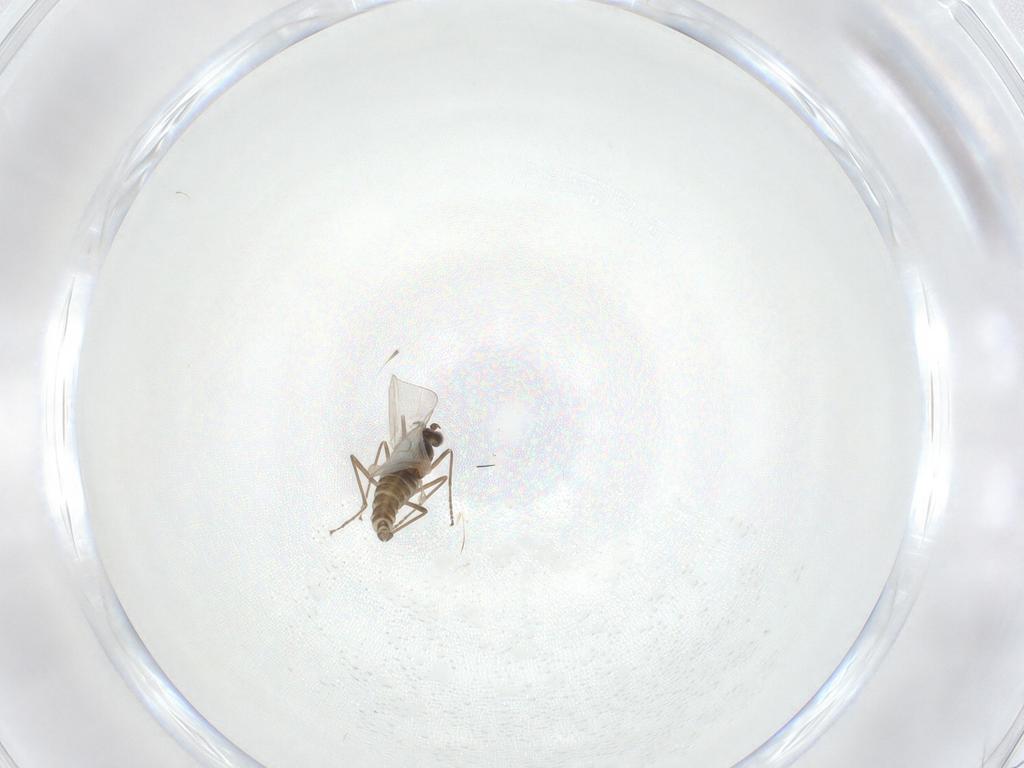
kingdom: Animalia
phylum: Arthropoda
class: Insecta
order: Diptera
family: Cecidomyiidae
